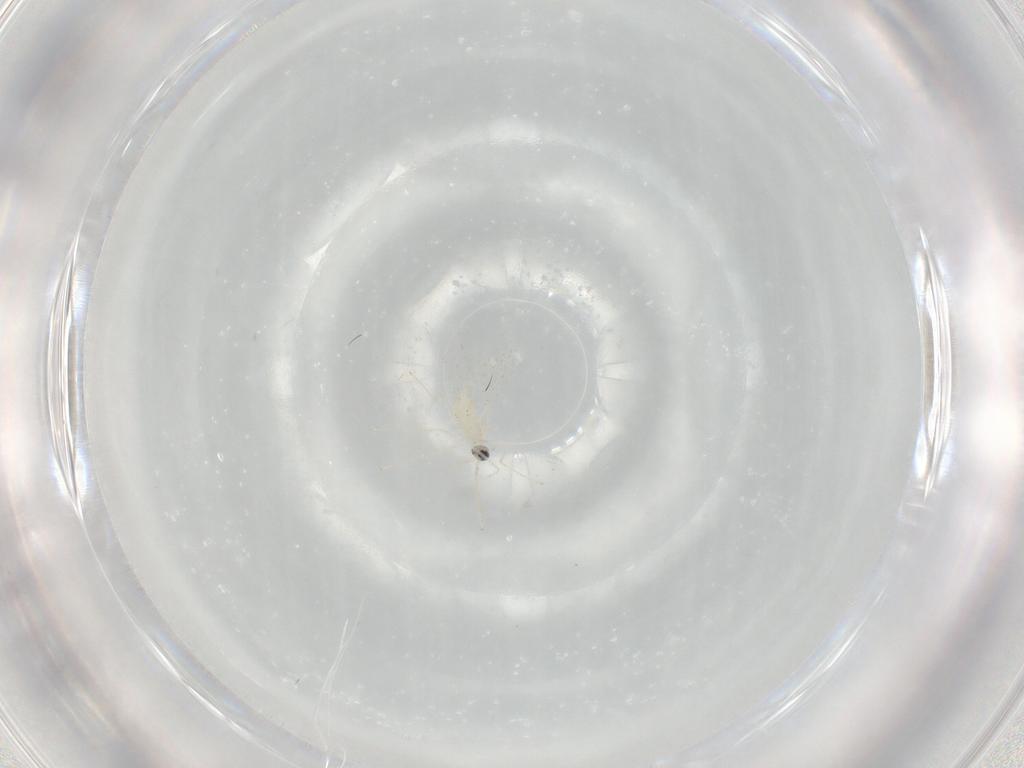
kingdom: Animalia
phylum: Arthropoda
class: Insecta
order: Diptera
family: Cecidomyiidae
